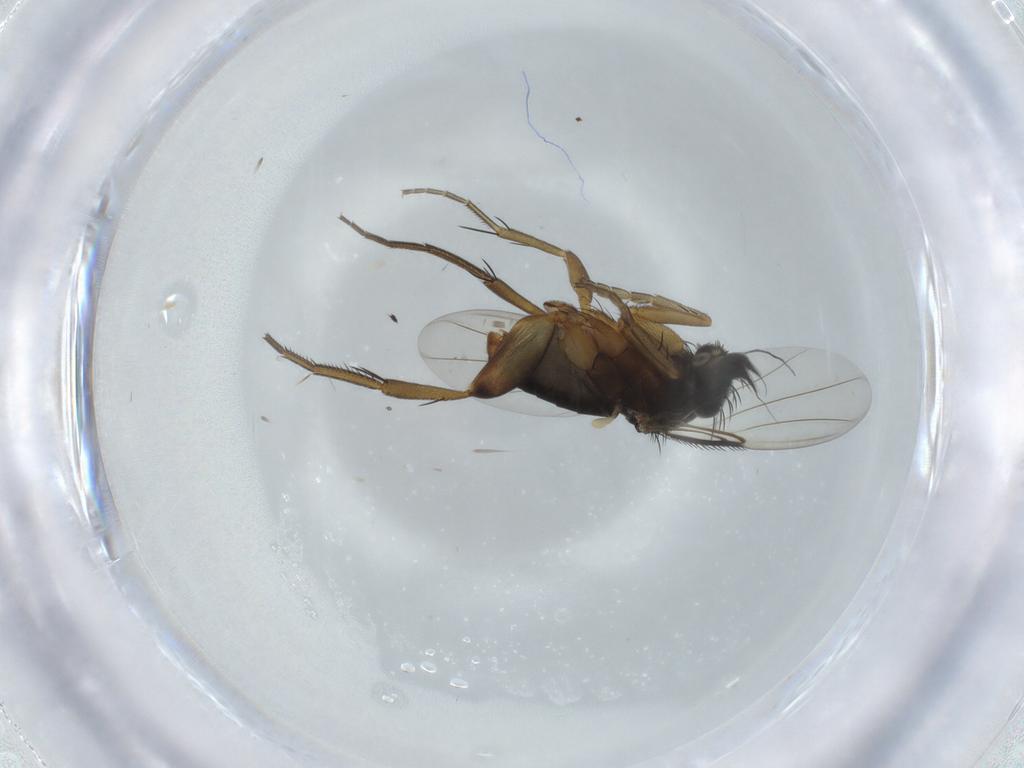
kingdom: Animalia
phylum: Arthropoda
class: Insecta
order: Diptera
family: Phoridae
